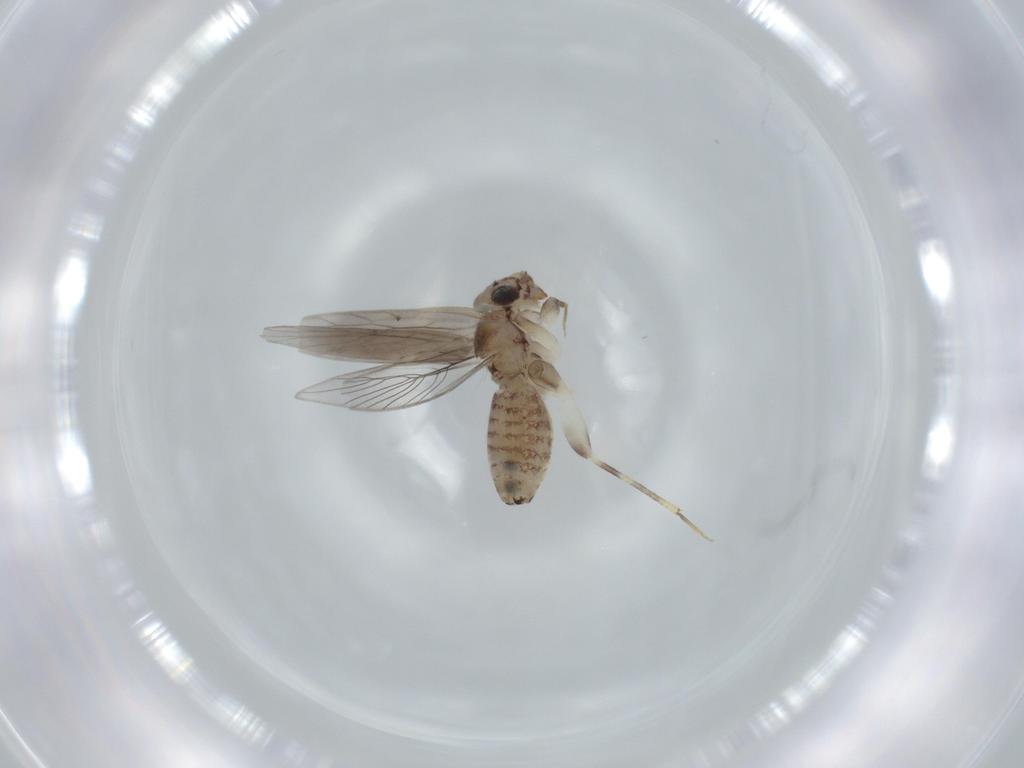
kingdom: Animalia
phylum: Arthropoda
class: Insecta
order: Psocodea
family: Lepidopsocidae
